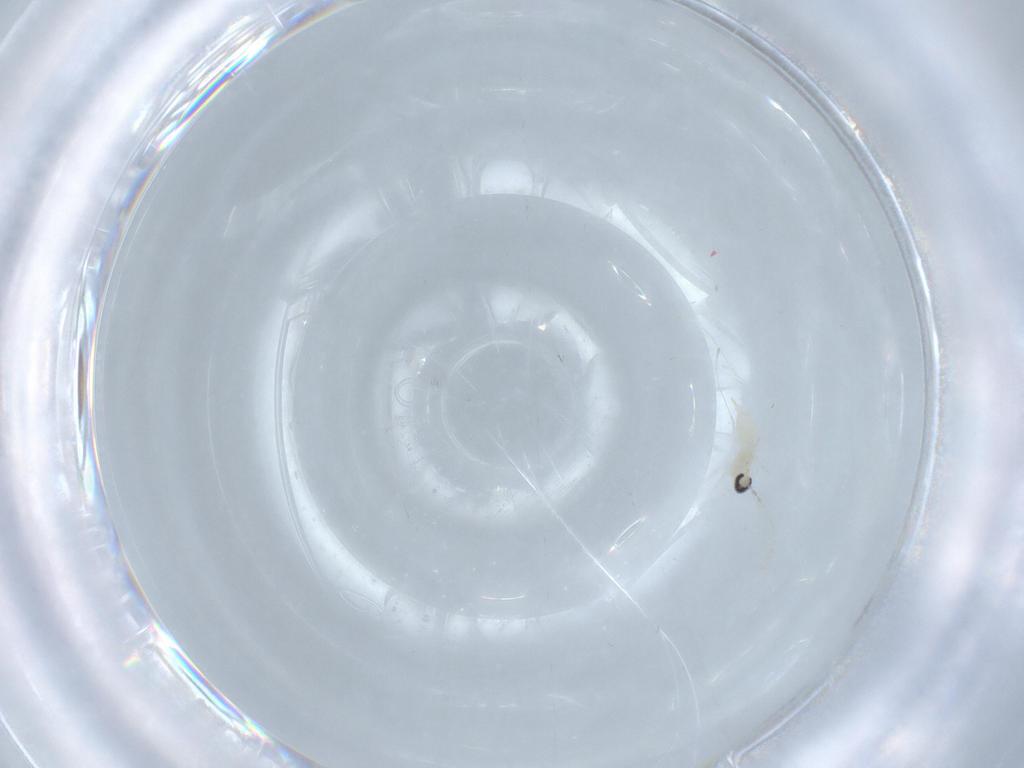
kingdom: Animalia
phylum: Arthropoda
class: Insecta
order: Diptera
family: Cecidomyiidae
